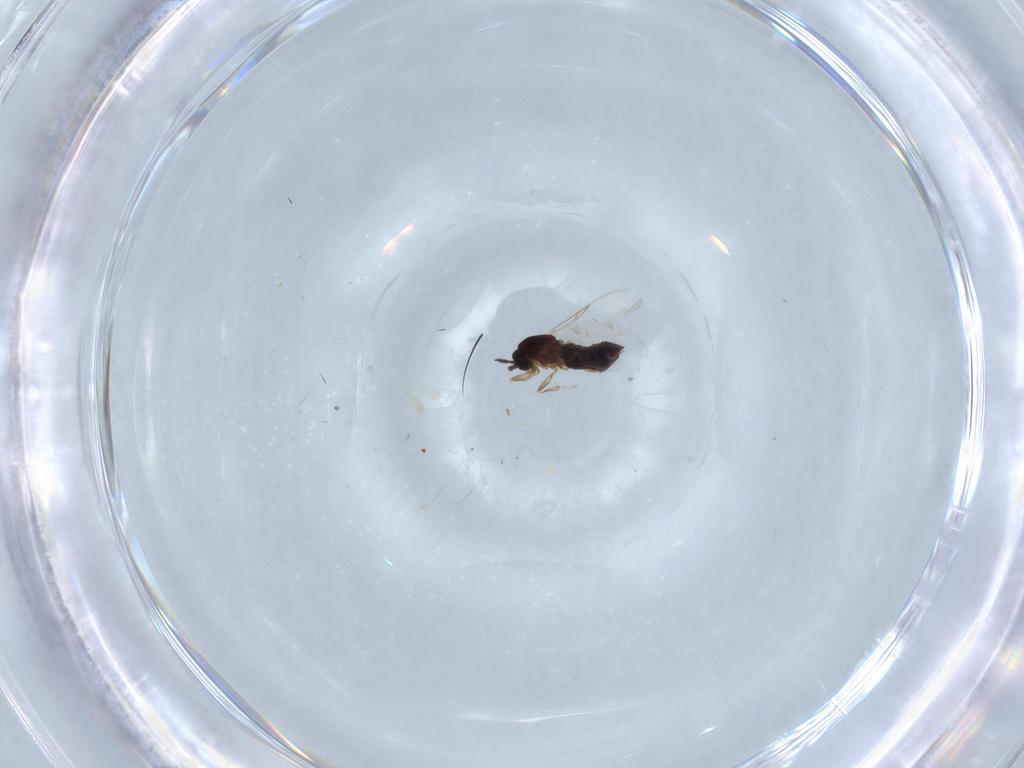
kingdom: Animalia
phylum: Arthropoda
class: Insecta
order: Diptera
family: Scatopsidae
